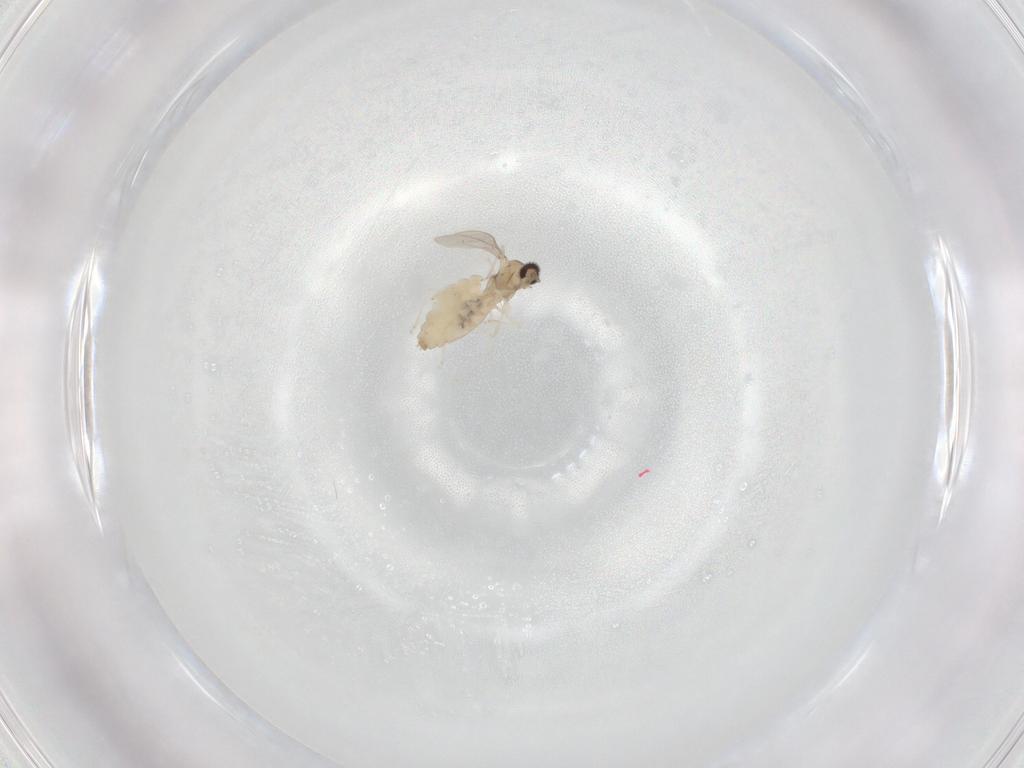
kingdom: Animalia
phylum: Arthropoda
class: Insecta
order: Diptera
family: Cecidomyiidae
